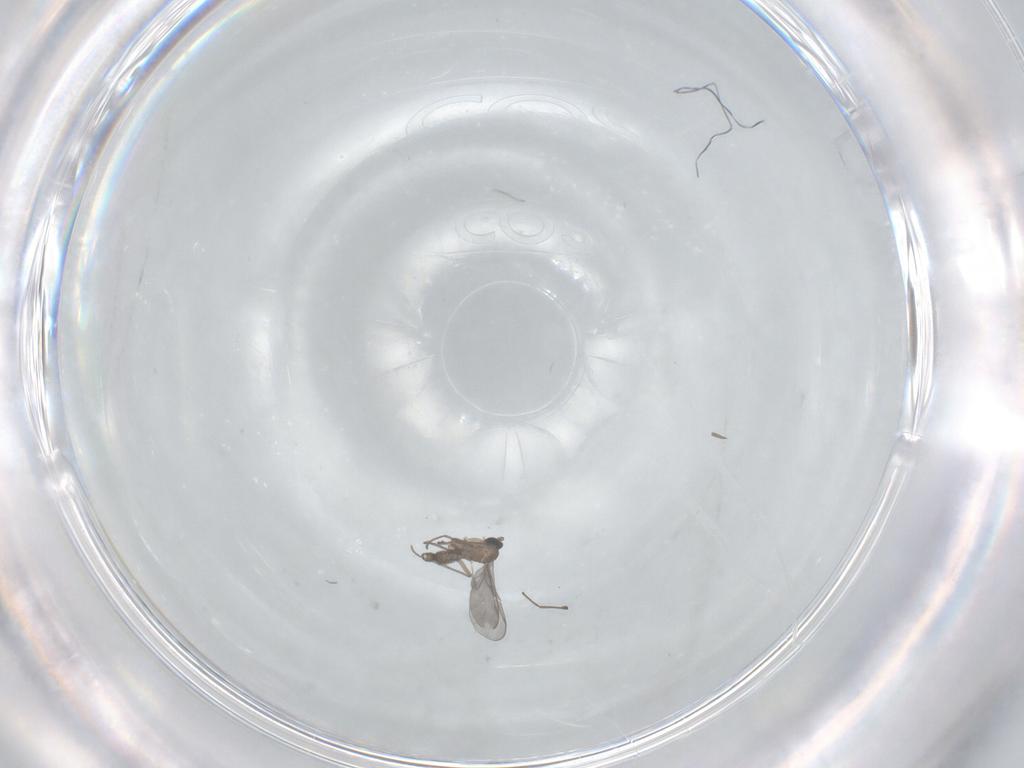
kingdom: Animalia
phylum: Arthropoda
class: Insecta
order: Diptera
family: Sciaridae
